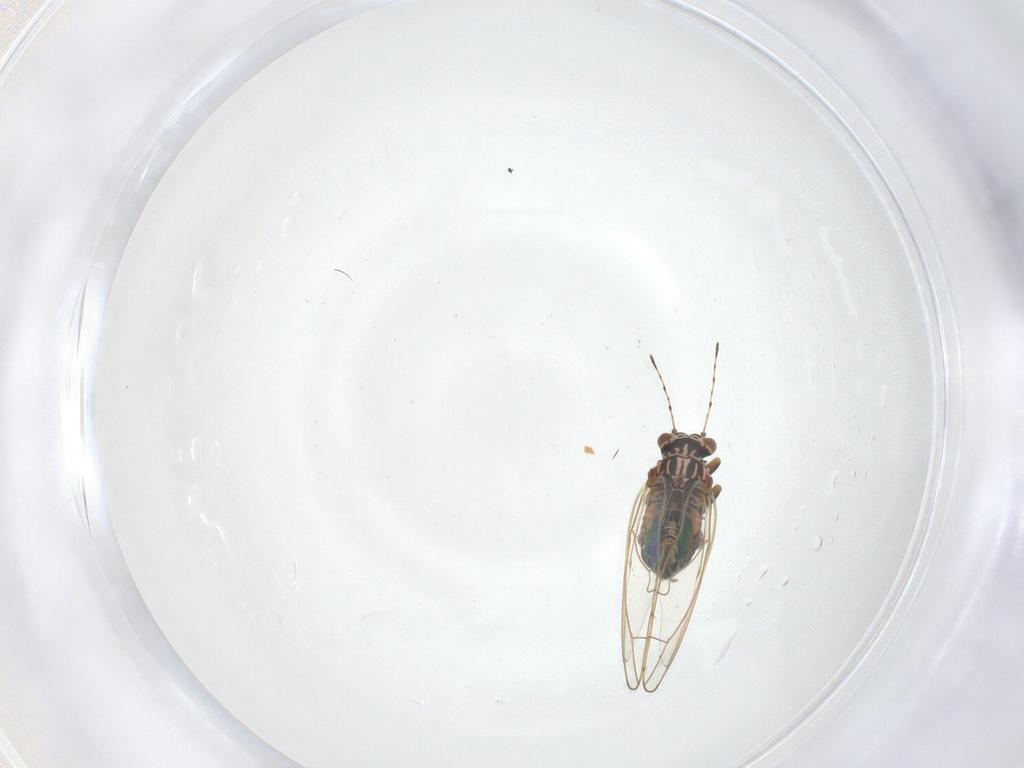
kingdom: Animalia
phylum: Arthropoda
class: Insecta
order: Hemiptera
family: Triozidae
